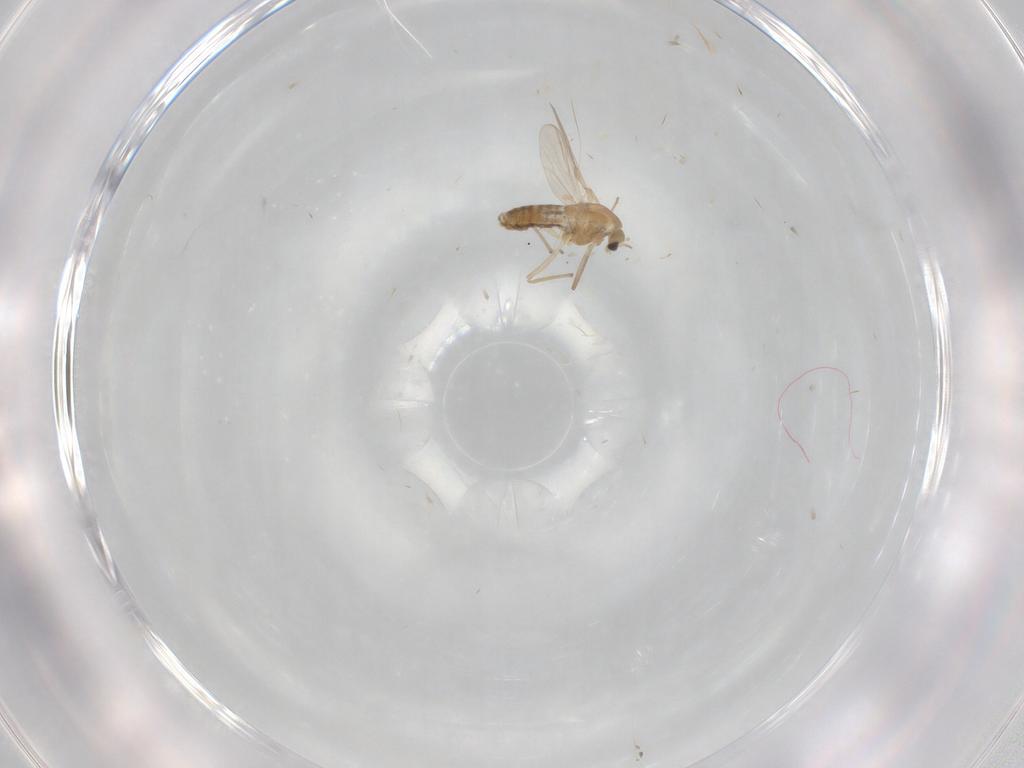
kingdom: Animalia
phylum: Arthropoda
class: Insecta
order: Diptera
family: Chironomidae
